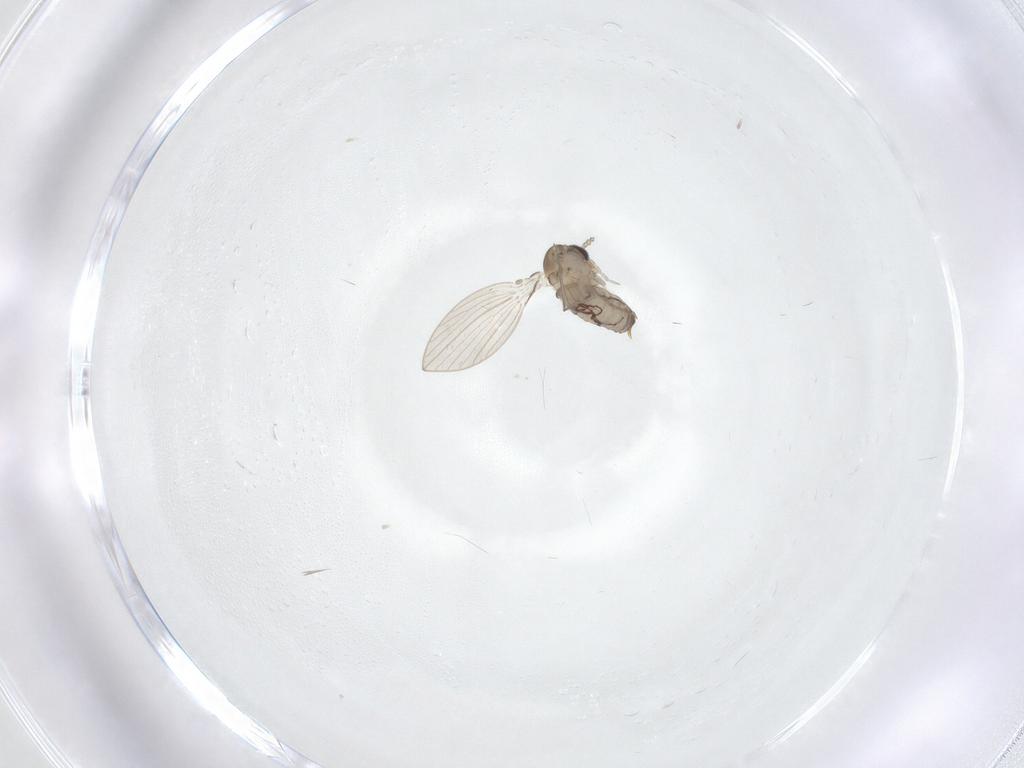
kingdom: Animalia
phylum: Arthropoda
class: Insecta
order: Diptera
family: Psychodidae
